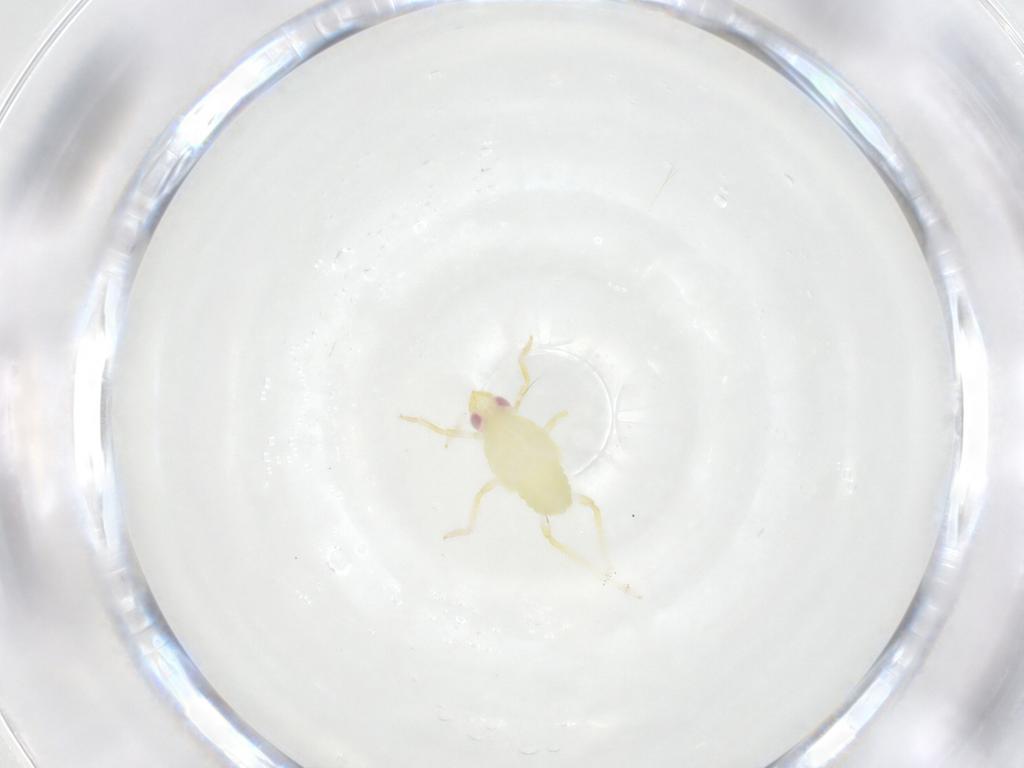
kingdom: Animalia
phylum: Arthropoda
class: Insecta
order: Hemiptera
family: Tropiduchidae
